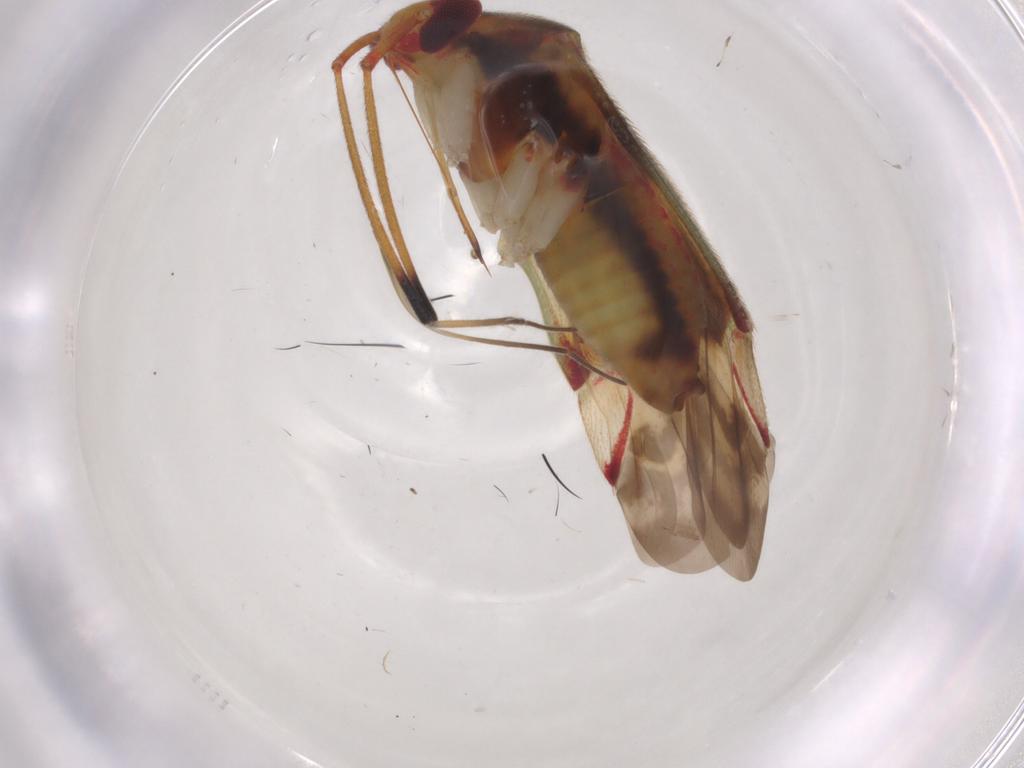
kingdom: Animalia
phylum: Arthropoda
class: Insecta
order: Hemiptera
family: Miridae
